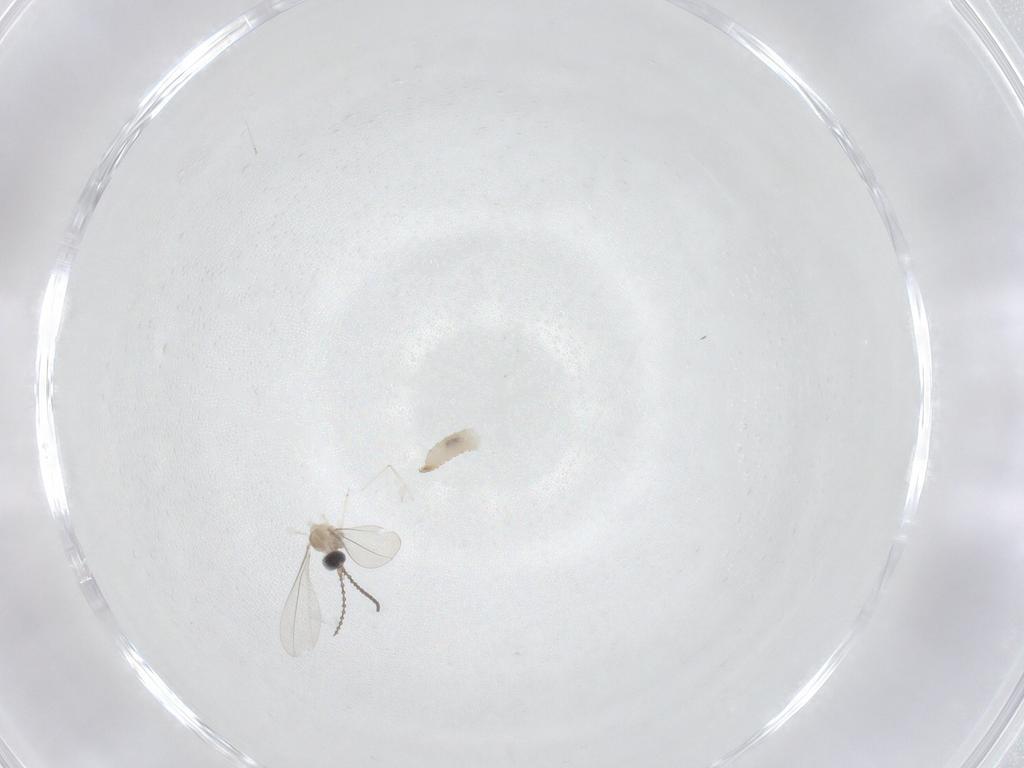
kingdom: Animalia
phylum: Arthropoda
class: Insecta
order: Diptera
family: Cecidomyiidae
